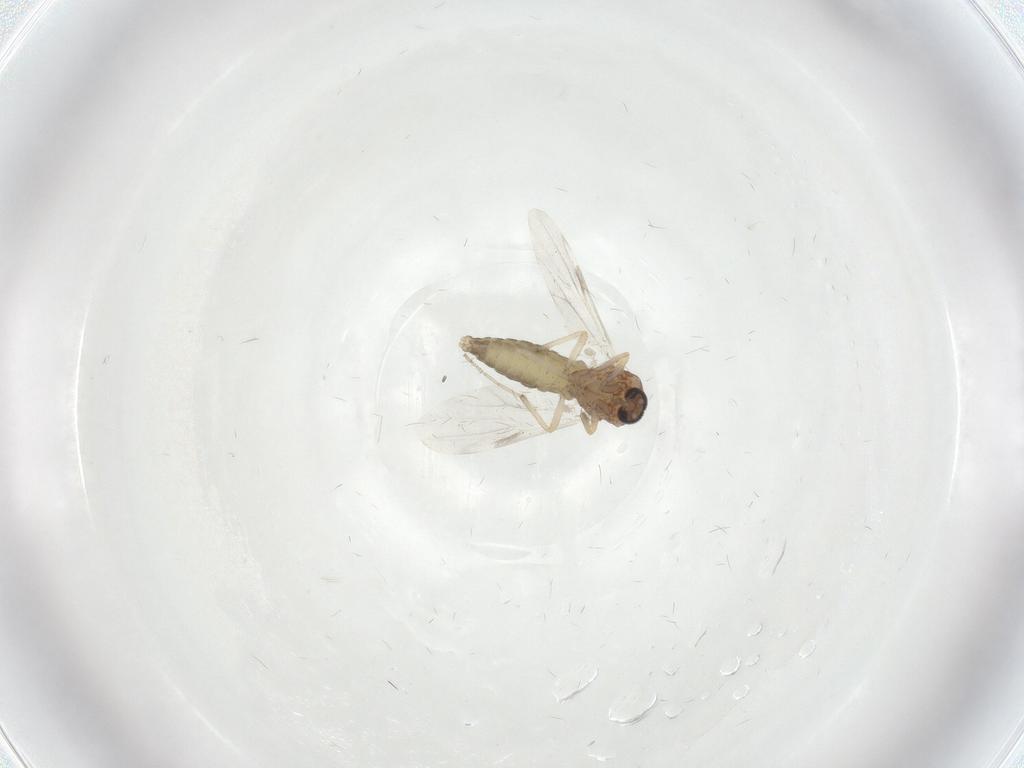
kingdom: Animalia
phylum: Arthropoda
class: Insecta
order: Diptera
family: Ceratopogonidae
